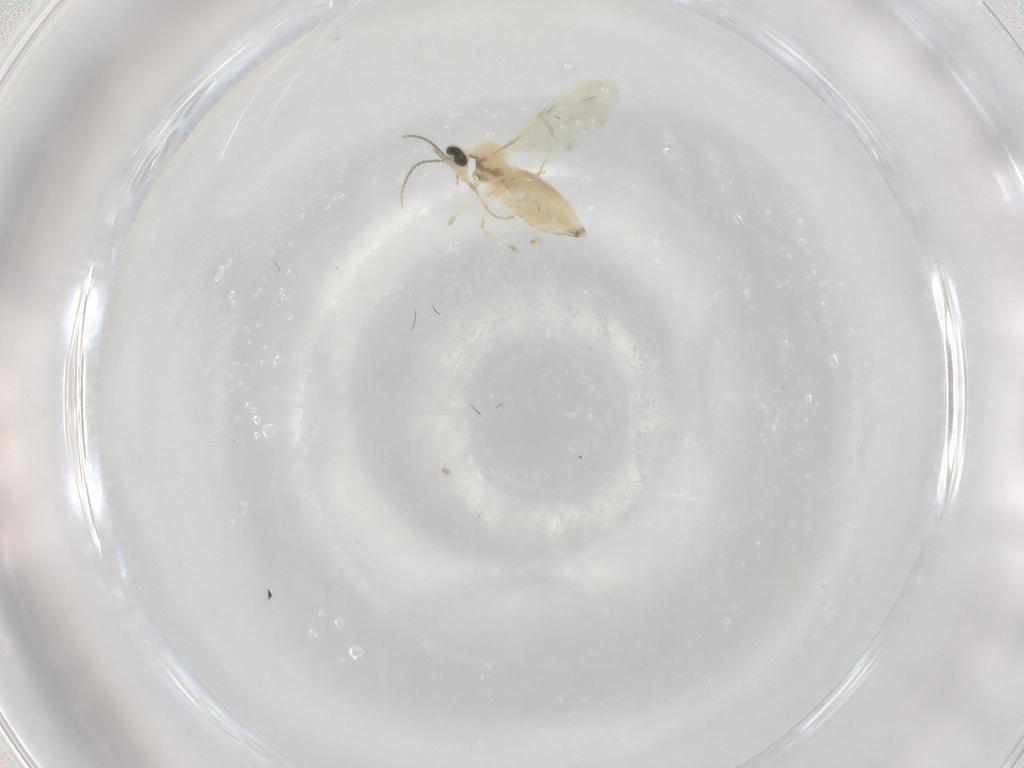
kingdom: Animalia
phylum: Arthropoda
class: Insecta
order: Diptera
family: Cecidomyiidae
